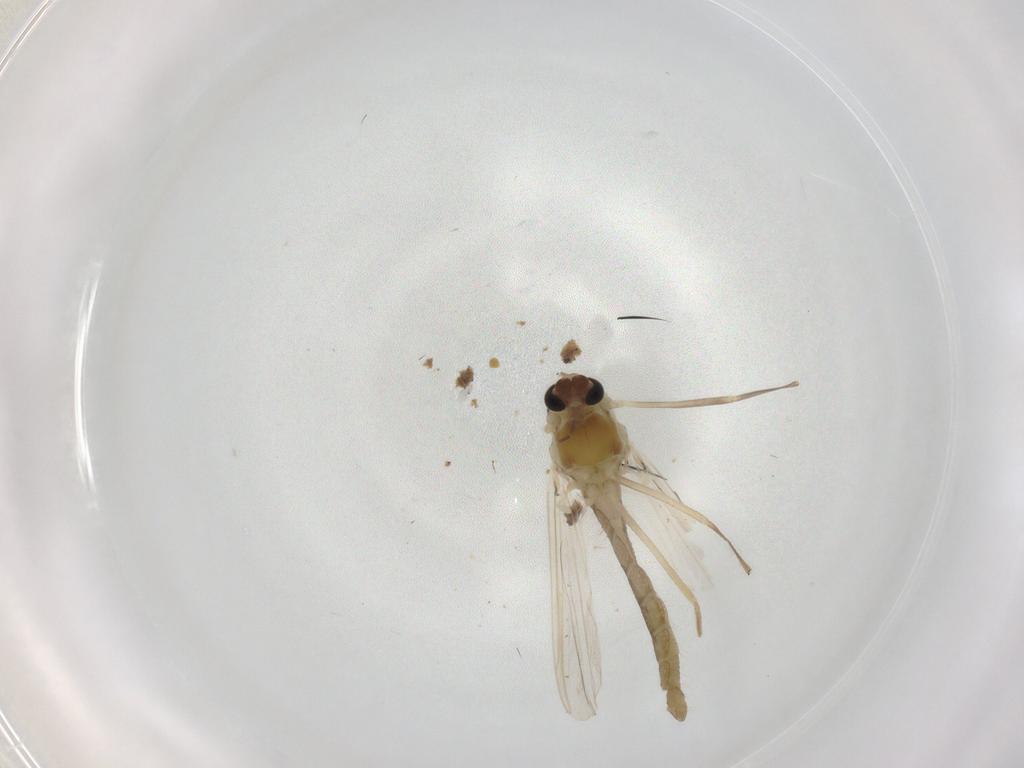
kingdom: Animalia
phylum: Arthropoda
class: Insecta
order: Diptera
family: Chironomidae
